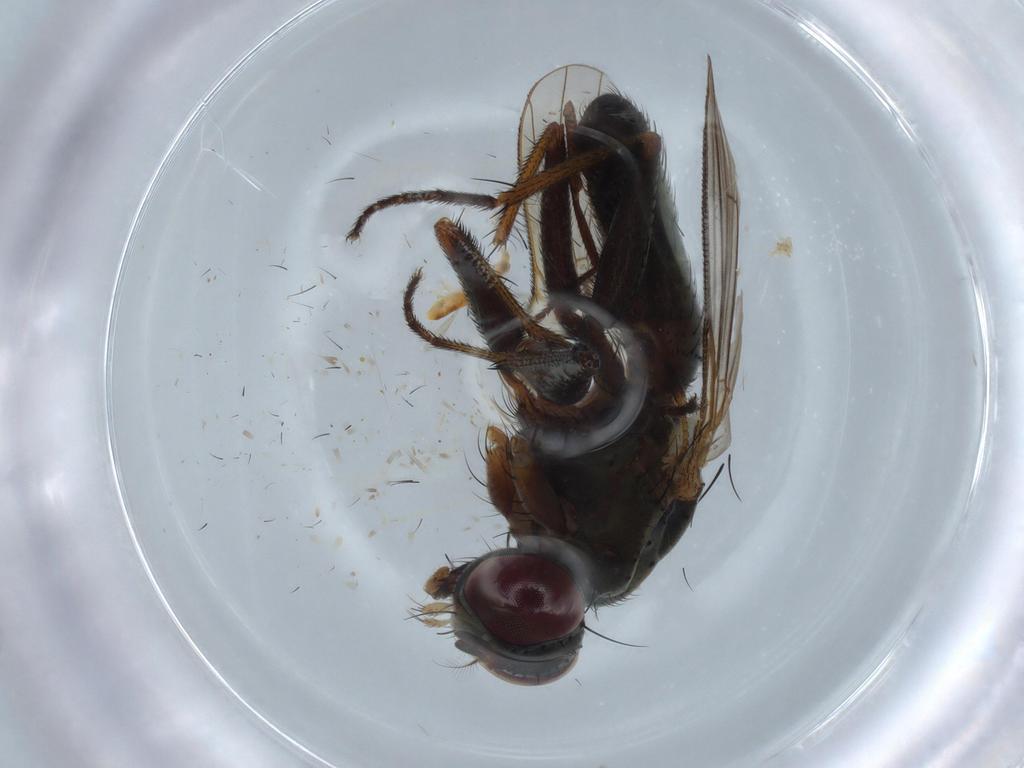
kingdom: Animalia
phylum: Arthropoda
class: Insecta
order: Diptera
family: Dolichopodidae
